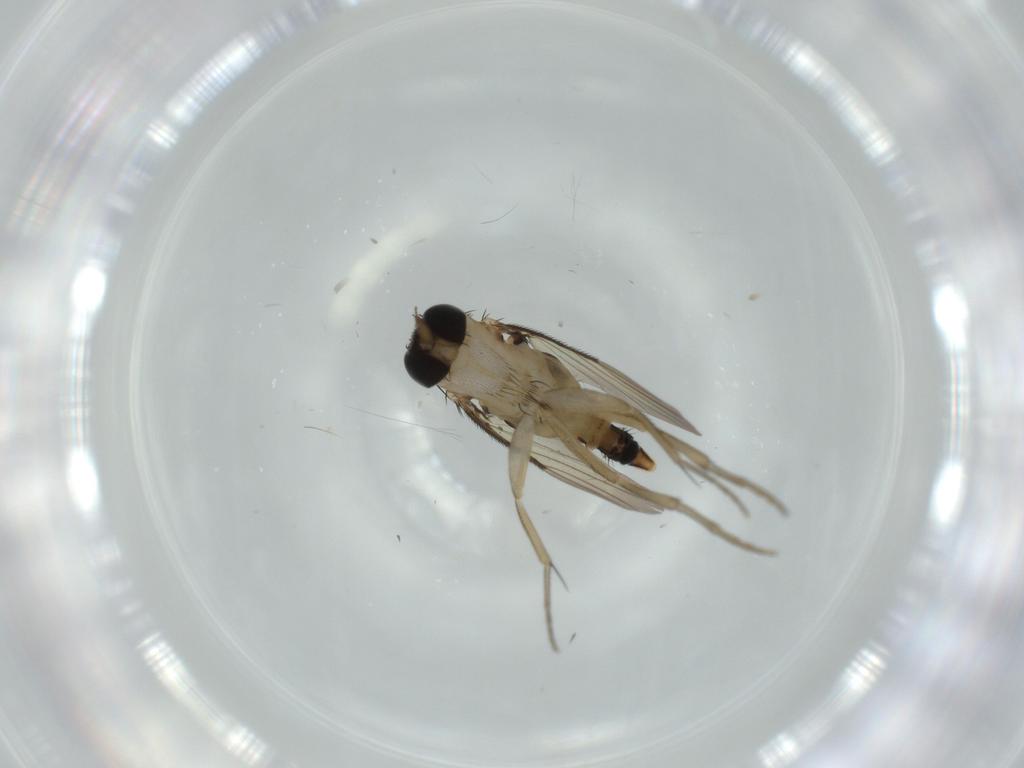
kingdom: Animalia
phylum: Arthropoda
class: Insecta
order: Diptera
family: Phoridae
